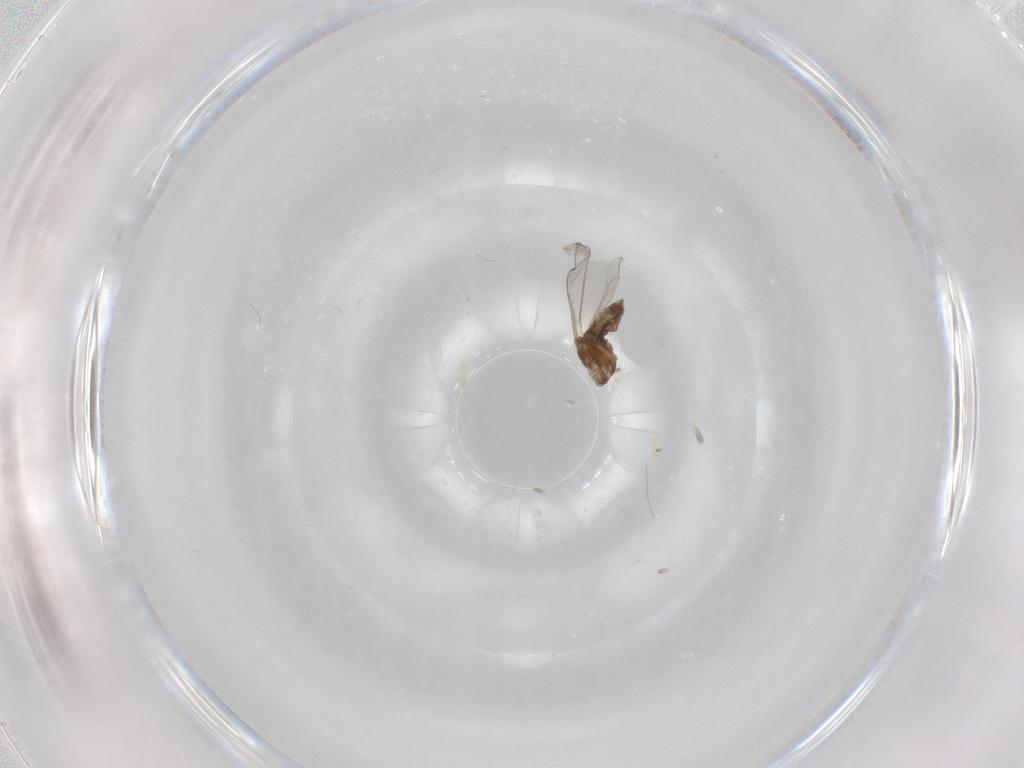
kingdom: Animalia
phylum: Arthropoda
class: Insecta
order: Diptera
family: Cecidomyiidae
